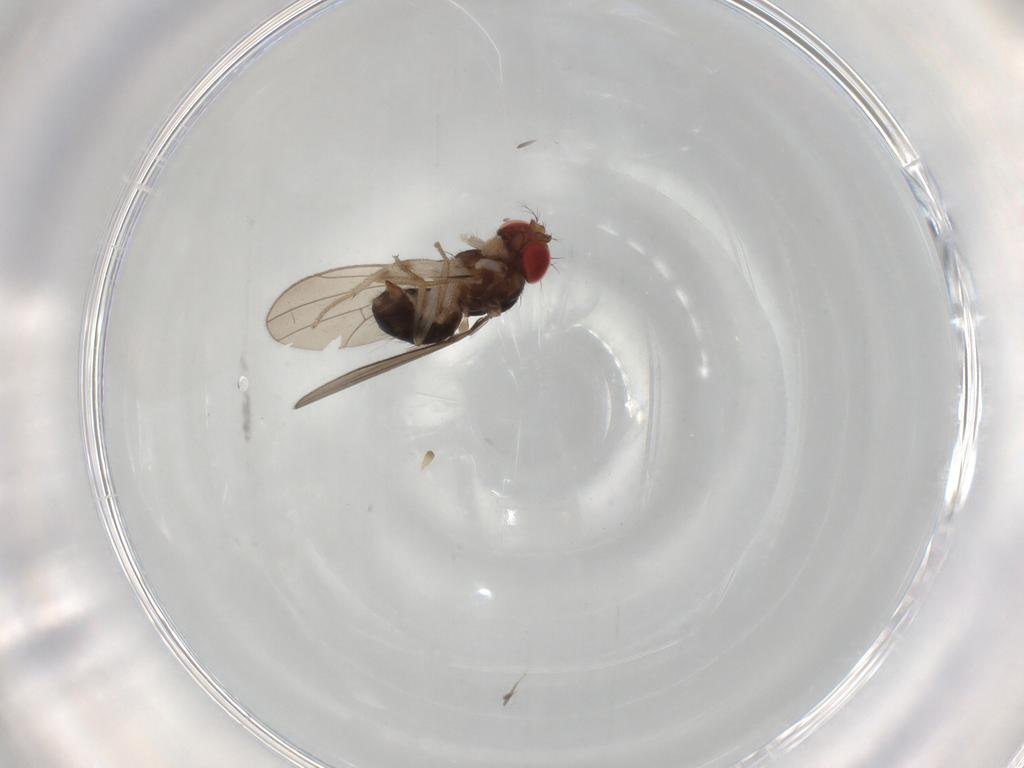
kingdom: Animalia
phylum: Arthropoda
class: Insecta
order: Diptera
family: Drosophilidae
